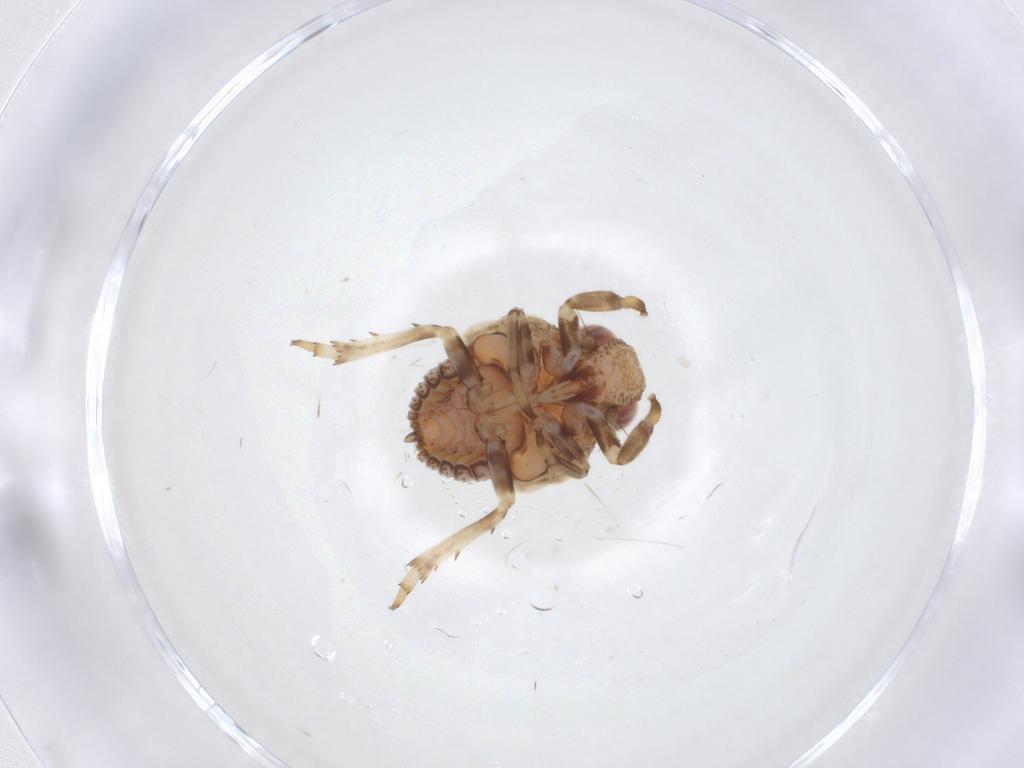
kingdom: Animalia
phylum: Arthropoda
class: Insecta
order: Hemiptera
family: Issidae
